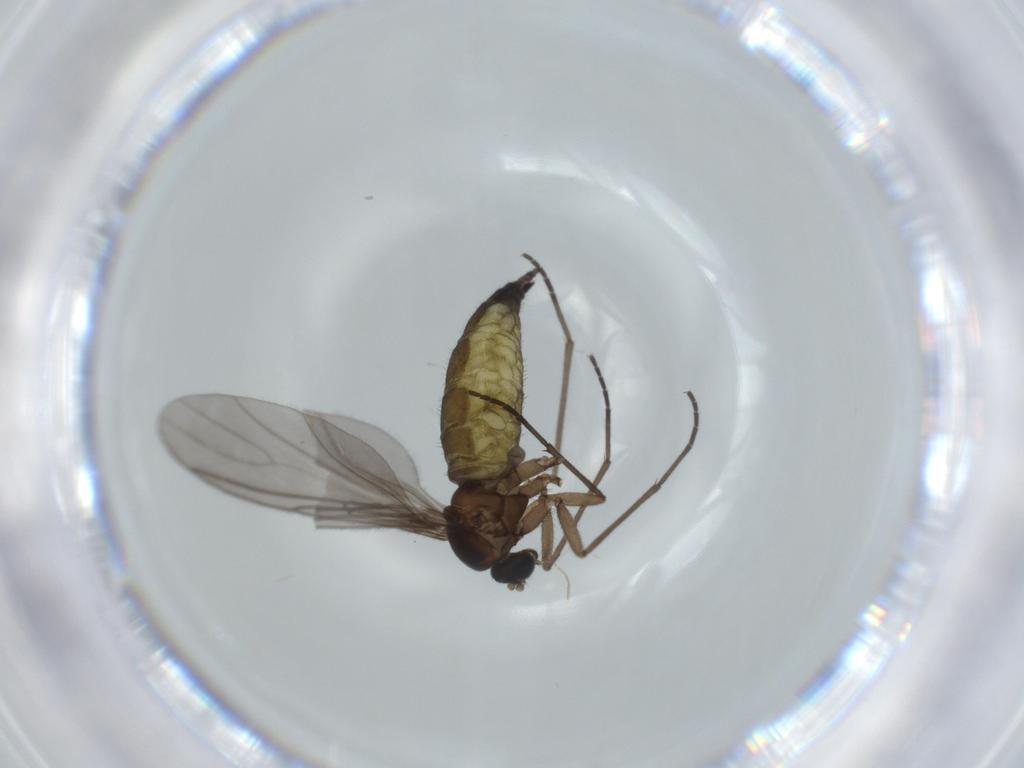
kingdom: Animalia
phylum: Arthropoda
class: Insecta
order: Diptera
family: Sciaridae
